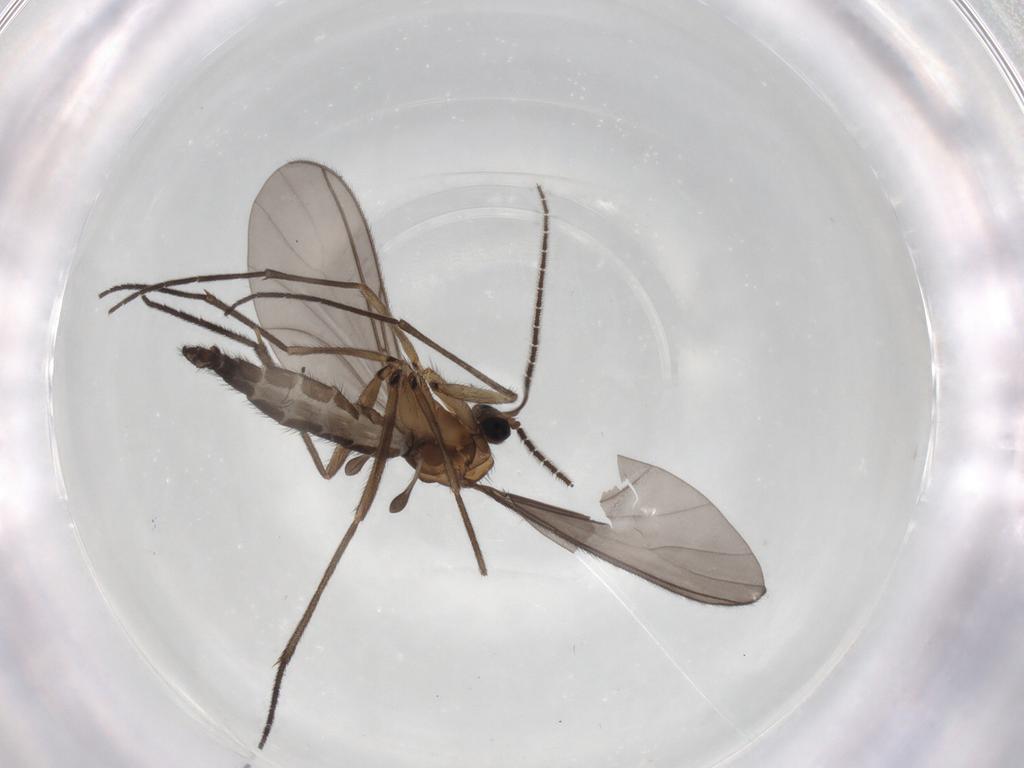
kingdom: Animalia
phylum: Arthropoda
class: Insecta
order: Diptera
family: Sciaridae
